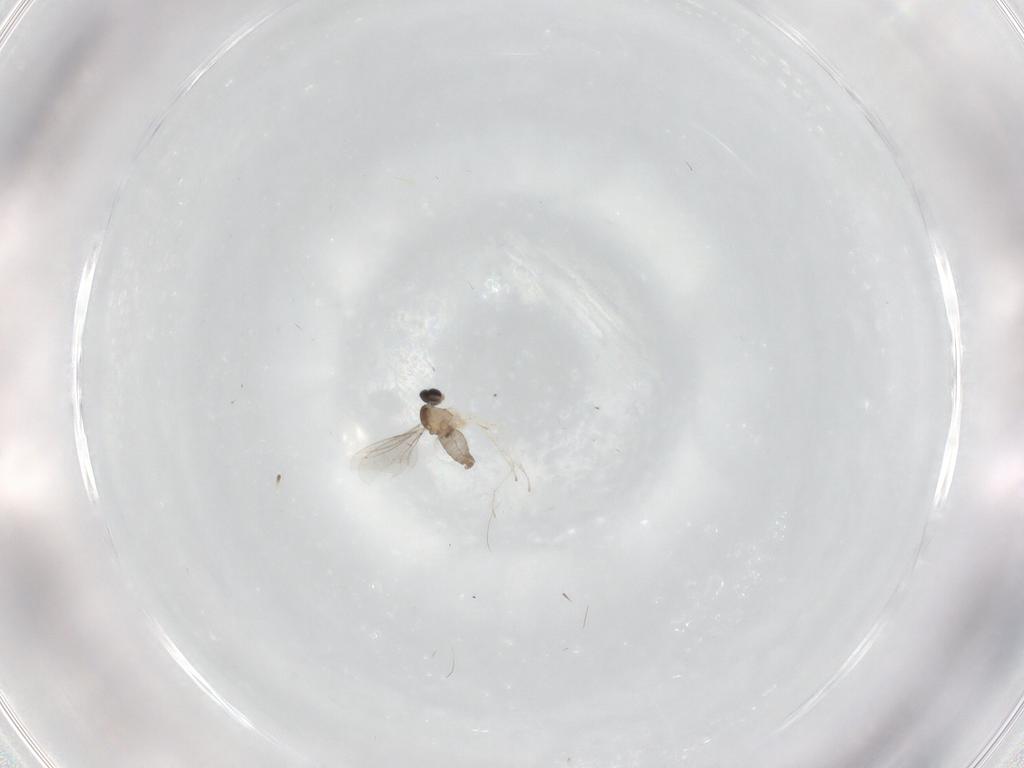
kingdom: Animalia
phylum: Arthropoda
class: Insecta
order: Diptera
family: Cecidomyiidae
